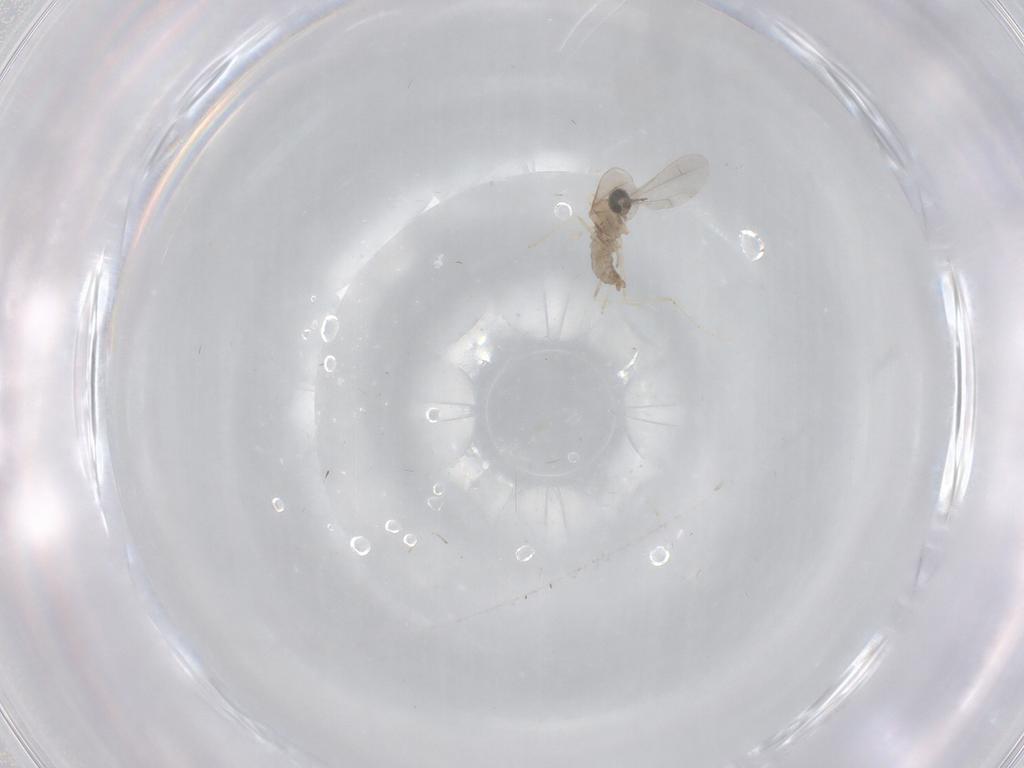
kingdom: Animalia
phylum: Arthropoda
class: Insecta
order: Diptera
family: Cecidomyiidae
